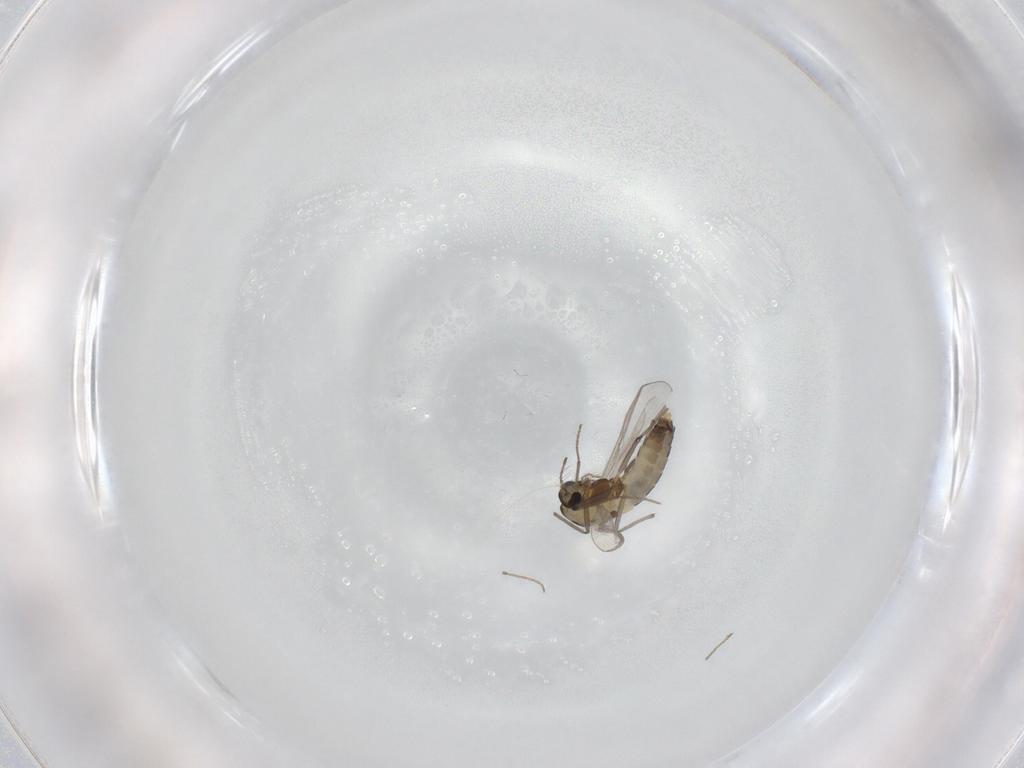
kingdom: Animalia
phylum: Arthropoda
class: Insecta
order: Diptera
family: Chironomidae
